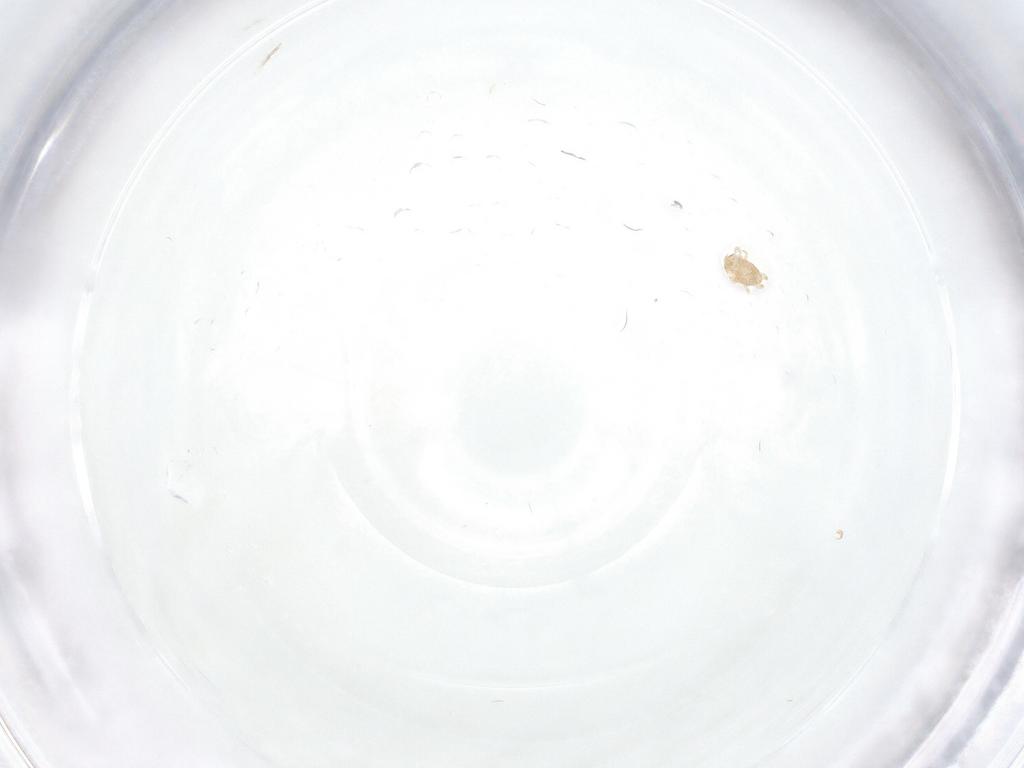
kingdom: Animalia
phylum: Arthropoda
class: Arachnida
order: Mesostigmata
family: Ascidae
